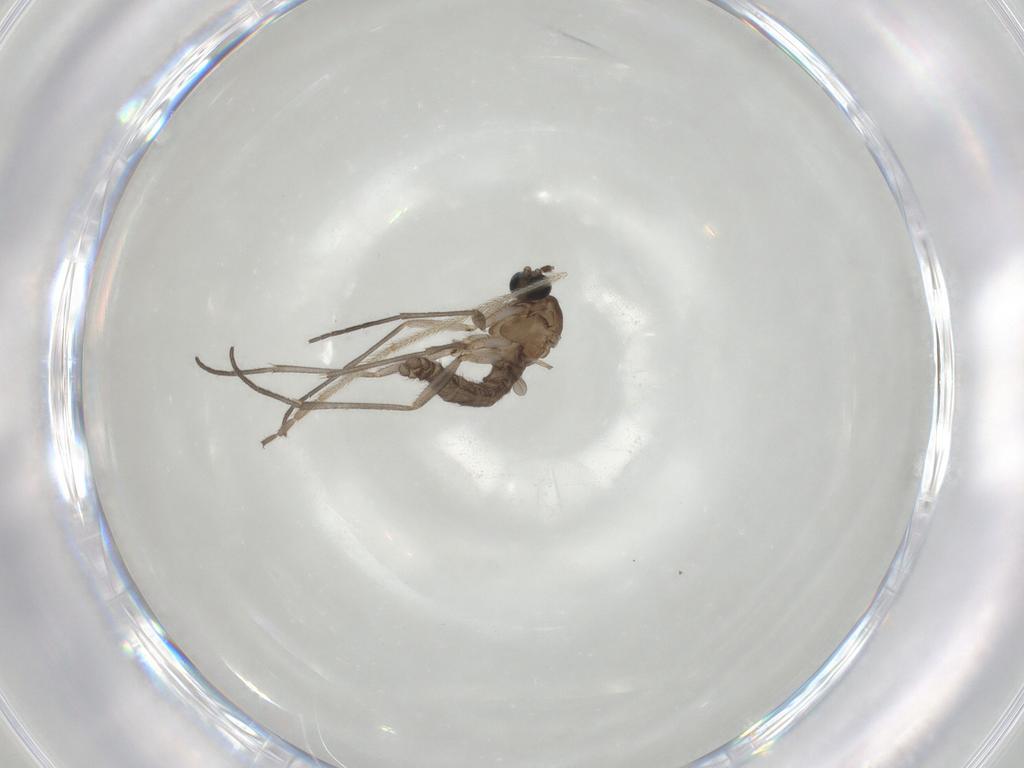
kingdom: Animalia
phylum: Arthropoda
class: Insecta
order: Diptera
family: Sciaridae
